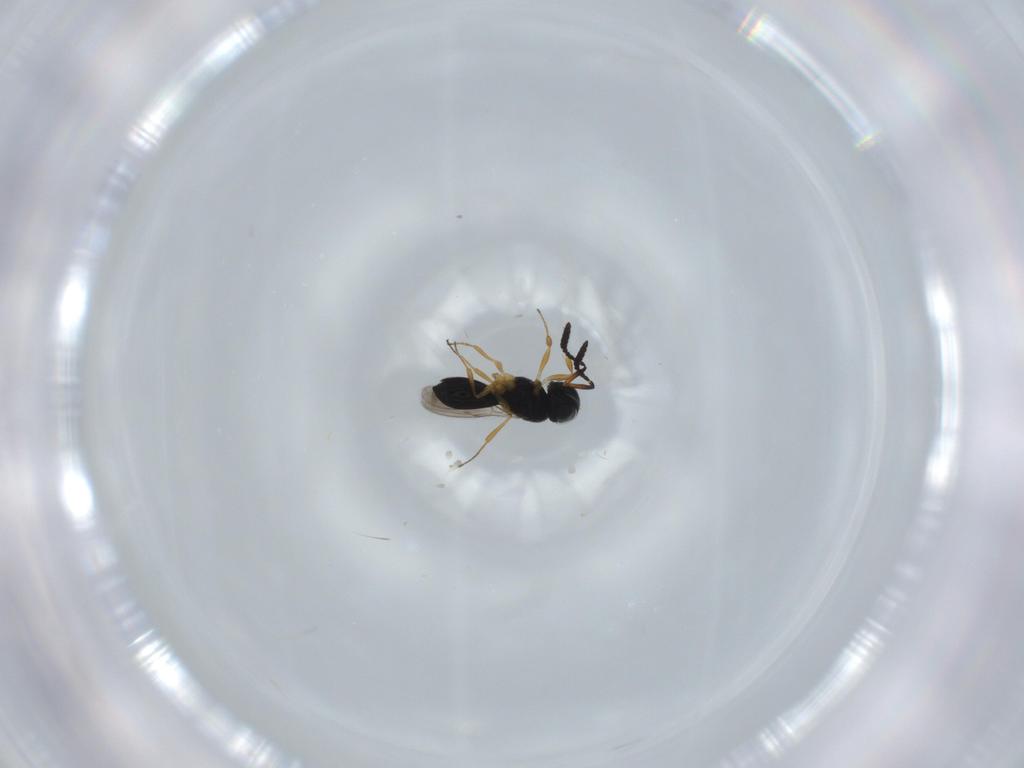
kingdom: Animalia
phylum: Arthropoda
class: Insecta
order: Hymenoptera
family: Scelionidae
